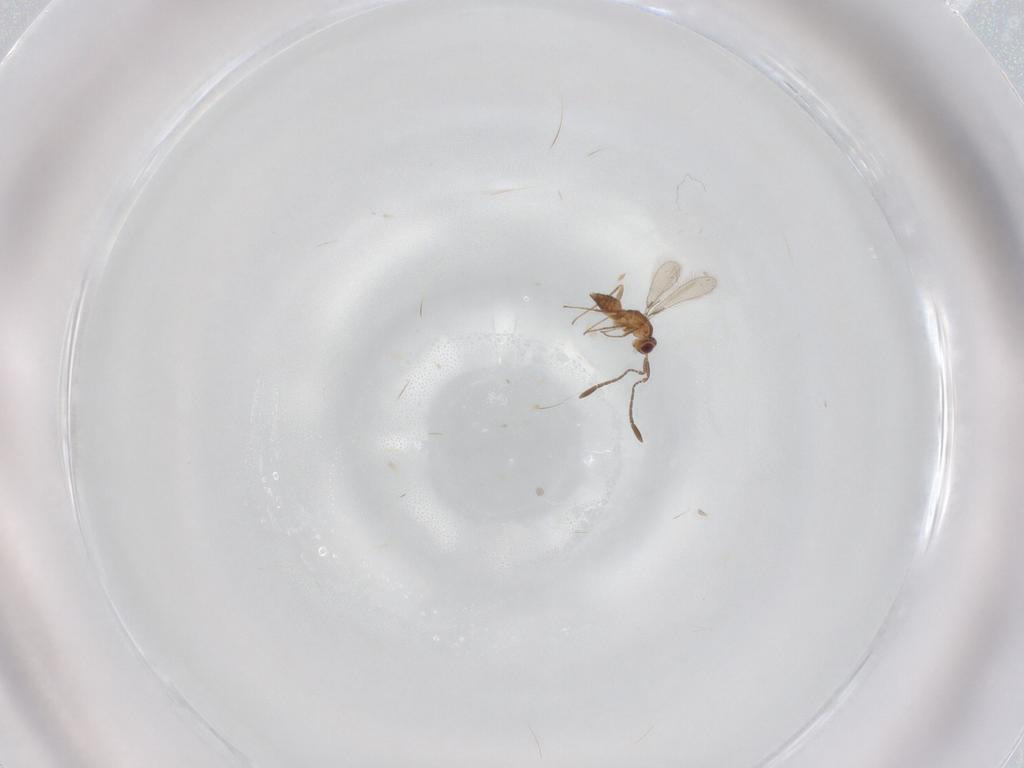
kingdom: Animalia
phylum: Arthropoda
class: Insecta
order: Hymenoptera
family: Mymaridae
